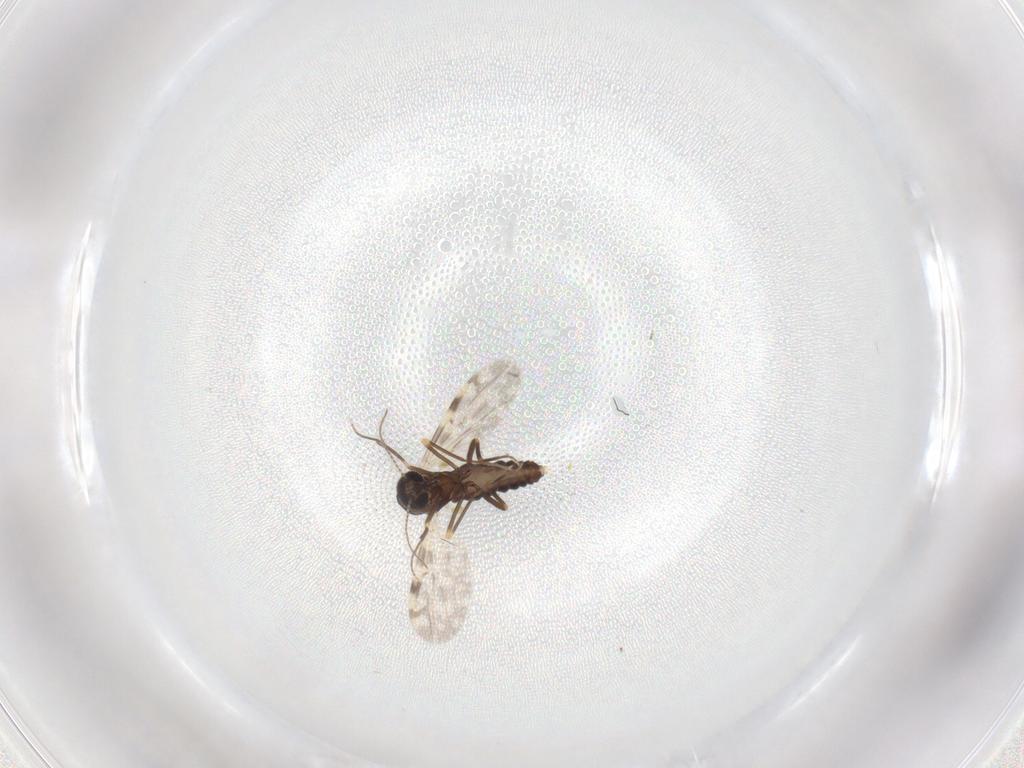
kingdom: Animalia
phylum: Arthropoda
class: Insecta
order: Diptera
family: Ceratopogonidae
